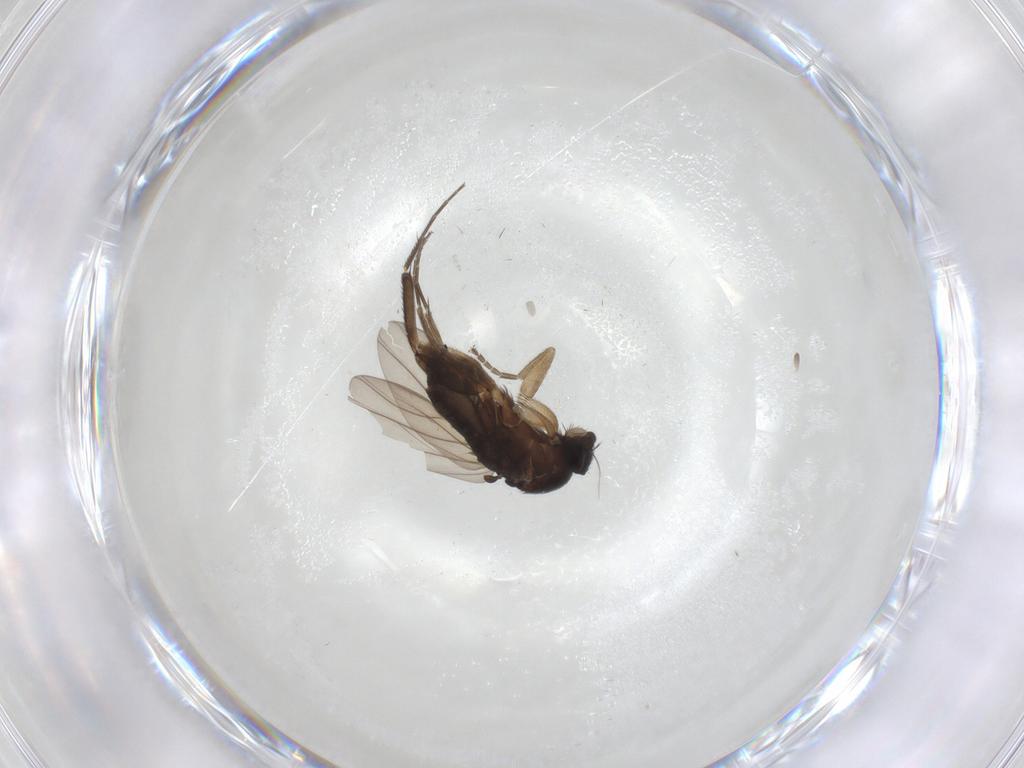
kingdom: Animalia
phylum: Arthropoda
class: Insecta
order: Diptera
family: Phoridae
